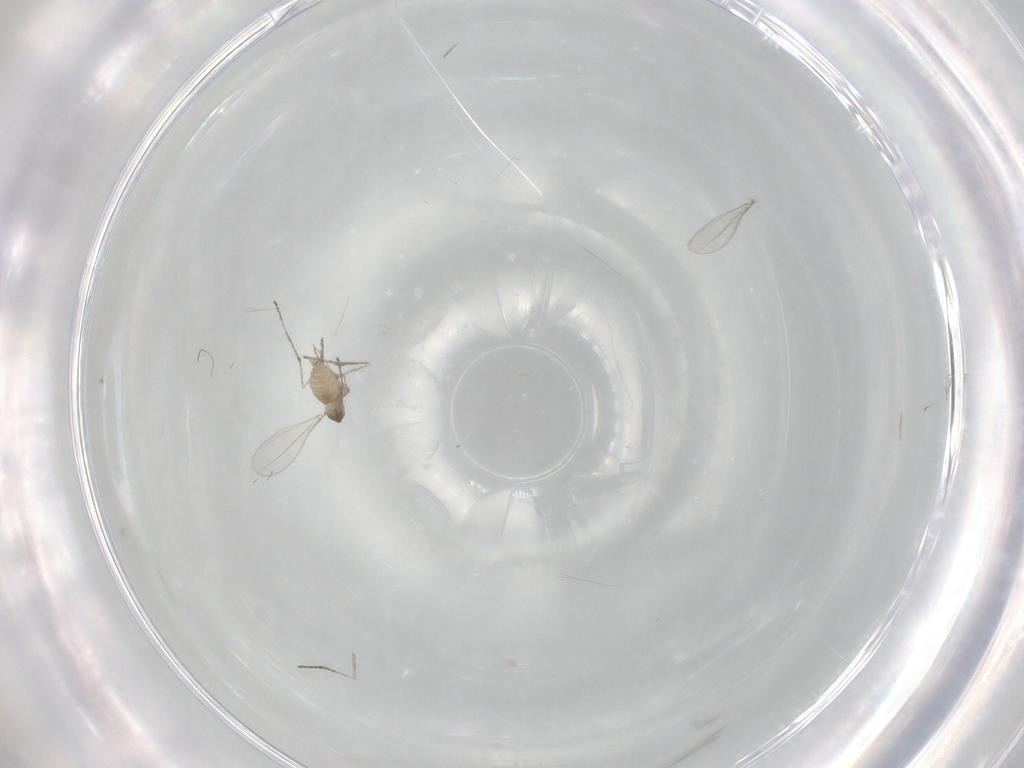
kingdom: Animalia
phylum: Arthropoda
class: Insecta
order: Diptera
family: Cecidomyiidae
